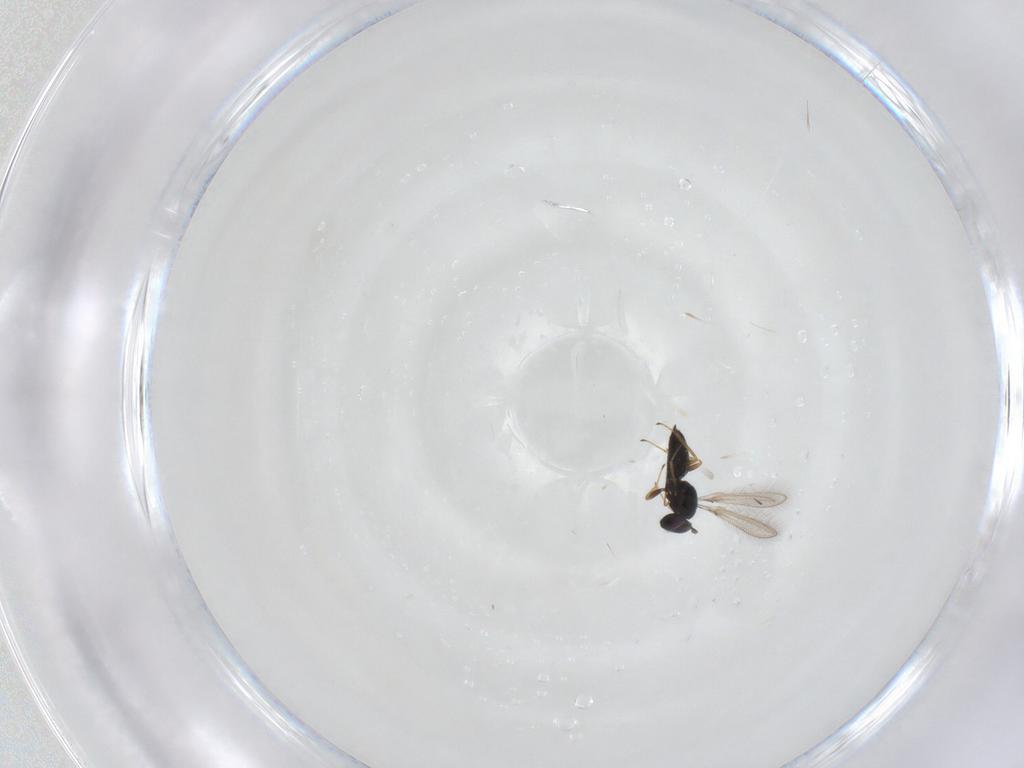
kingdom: Animalia
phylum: Arthropoda
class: Insecta
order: Hymenoptera
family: Mymaridae
